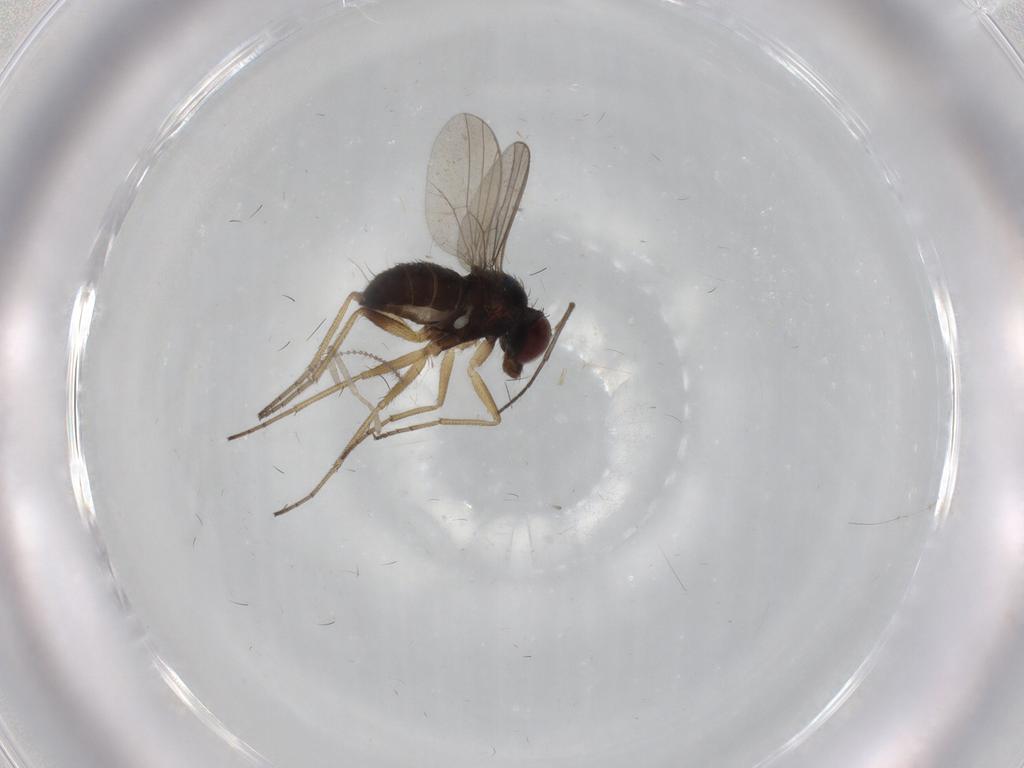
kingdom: Animalia
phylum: Arthropoda
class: Insecta
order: Diptera
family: Dolichopodidae
